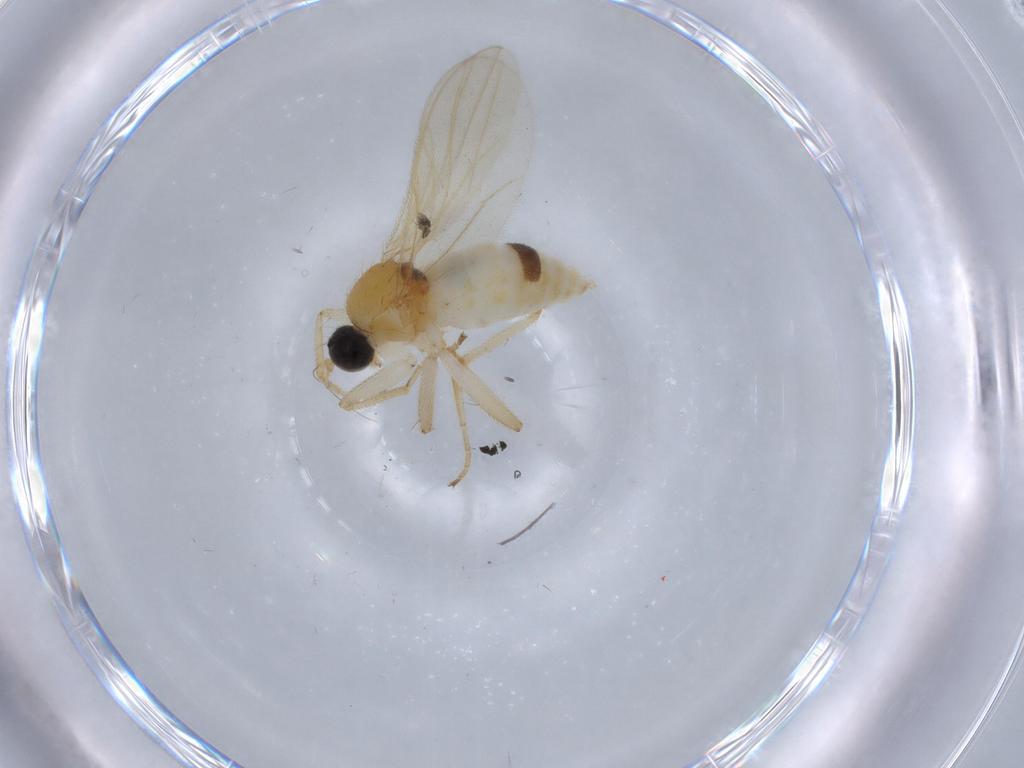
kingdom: Animalia
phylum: Arthropoda
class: Insecta
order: Diptera
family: Hybotidae
